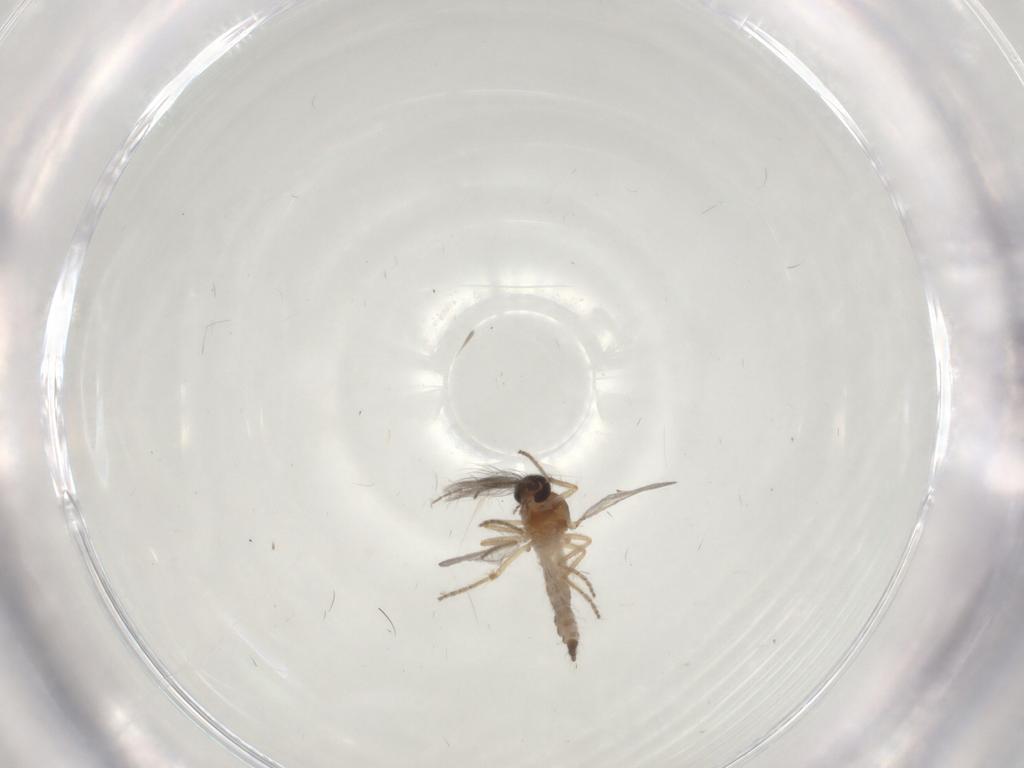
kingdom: Animalia
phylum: Arthropoda
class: Insecta
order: Diptera
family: Ceratopogonidae
